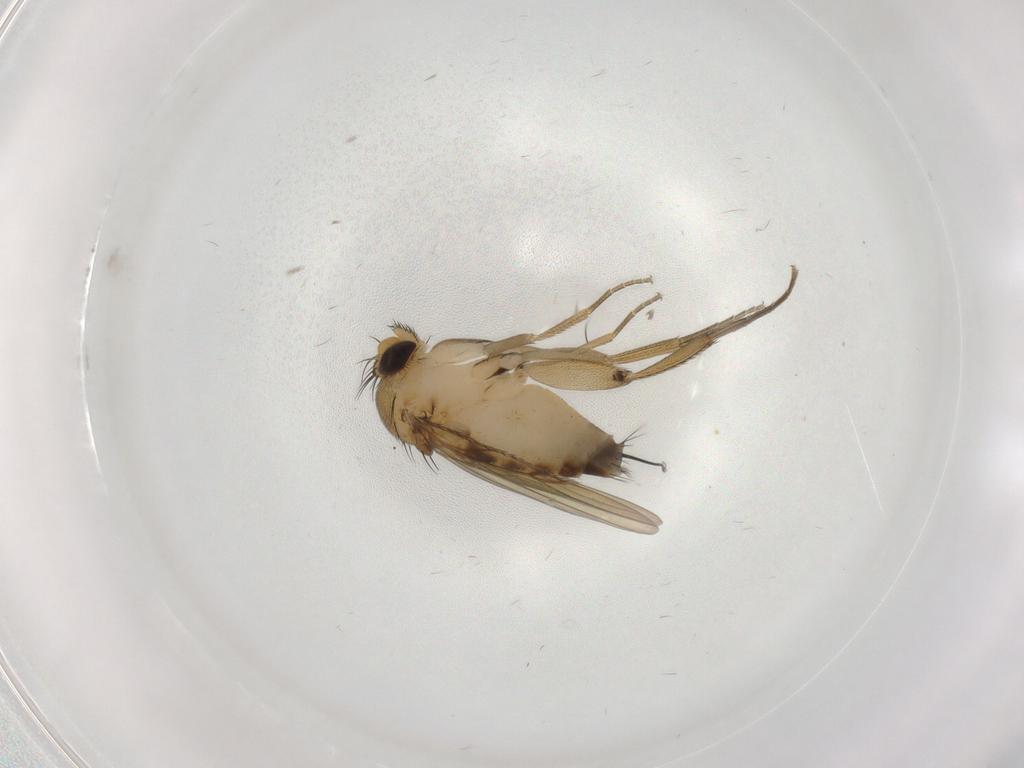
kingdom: Animalia
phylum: Arthropoda
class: Insecta
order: Diptera
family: Phoridae
